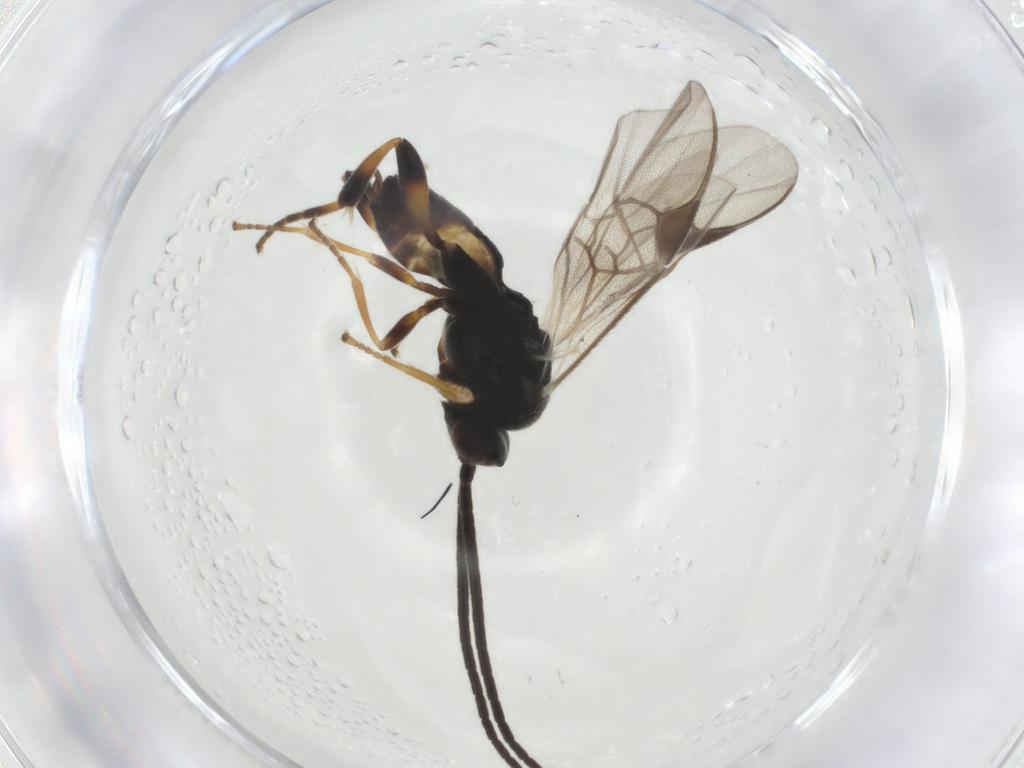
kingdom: Animalia
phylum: Arthropoda
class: Insecta
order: Hymenoptera
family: Braconidae
